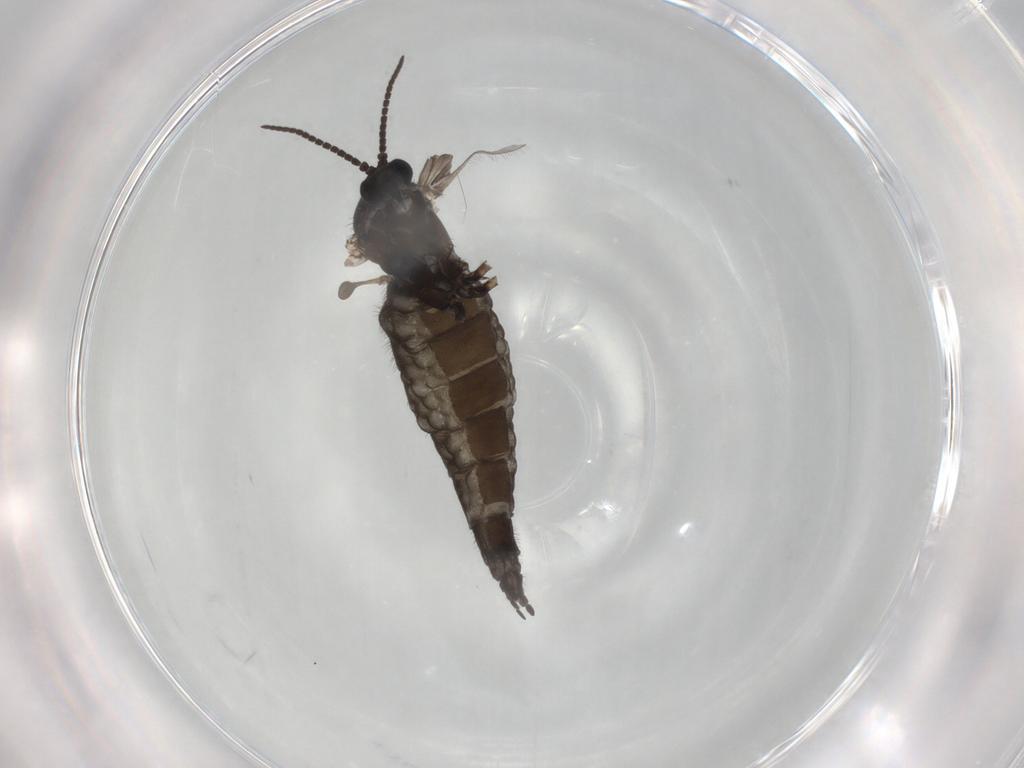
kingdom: Animalia
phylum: Arthropoda
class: Insecta
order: Diptera
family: Sciaridae
